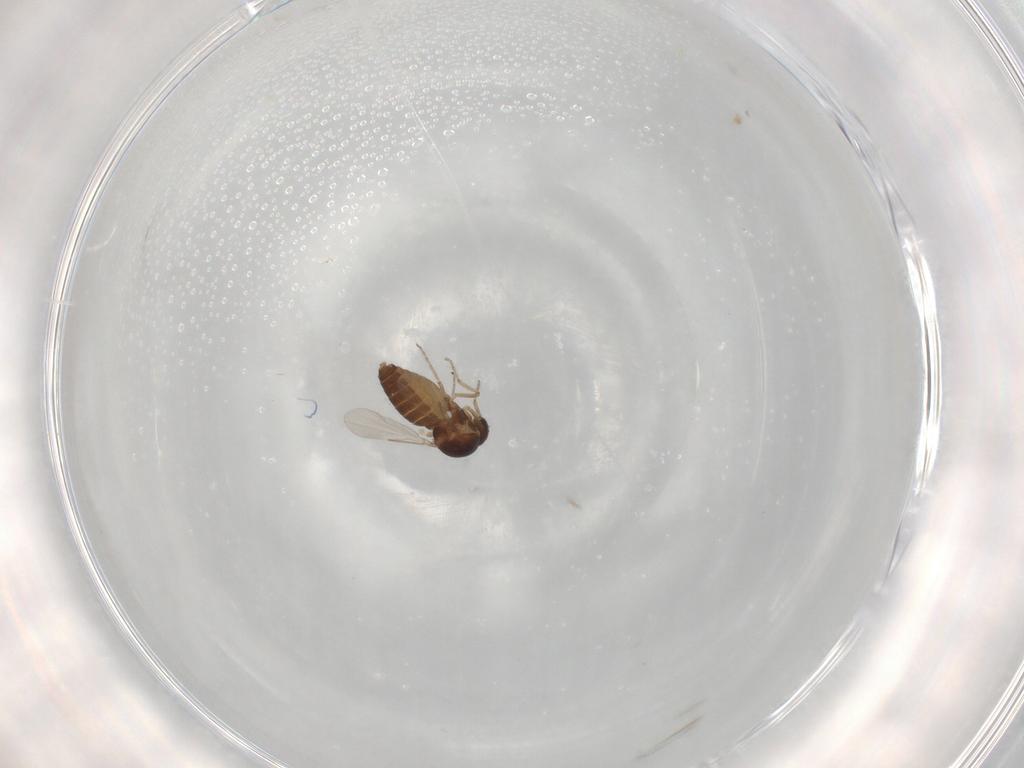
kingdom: Animalia
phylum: Arthropoda
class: Insecta
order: Diptera
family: Ceratopogonidae
